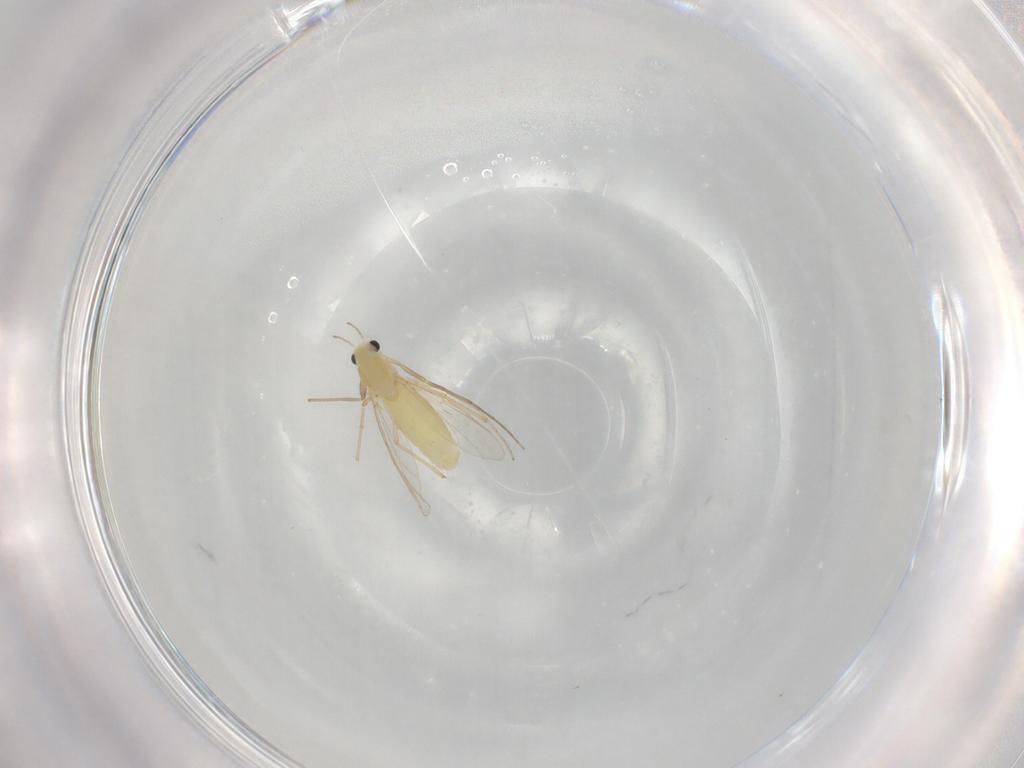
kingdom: Animalia
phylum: Arthropoda
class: Insecta
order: Diptera
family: Chironomidae
